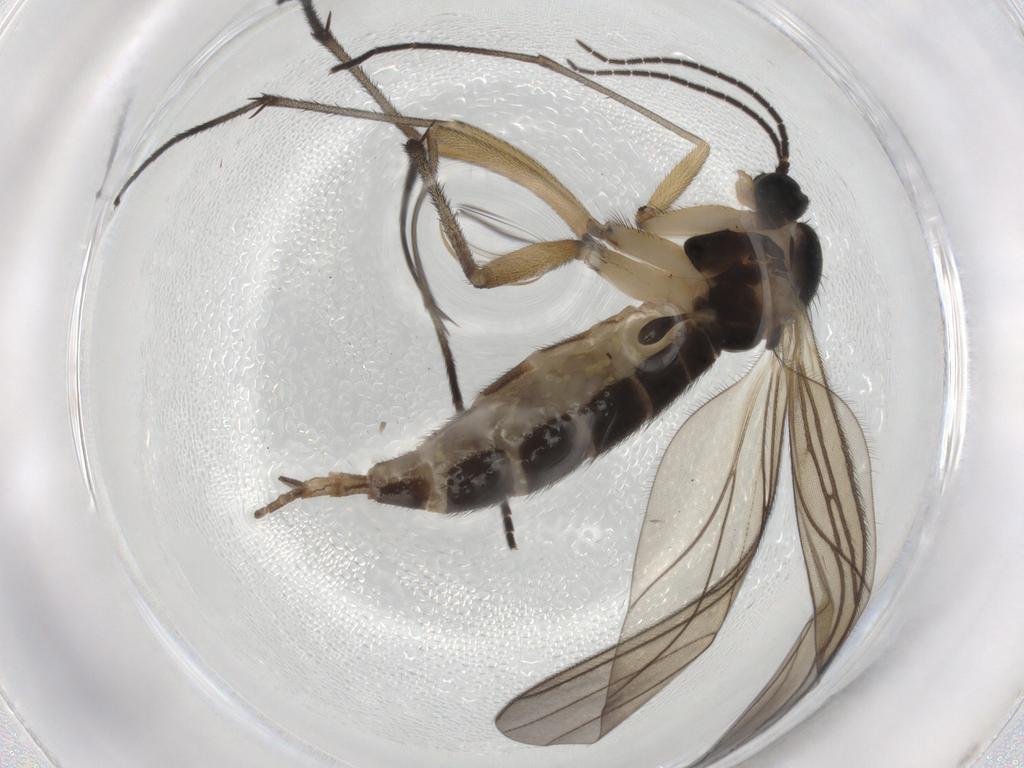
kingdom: Animalia
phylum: Arthropoda
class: Insecta
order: Diptera
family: Sciaridae
